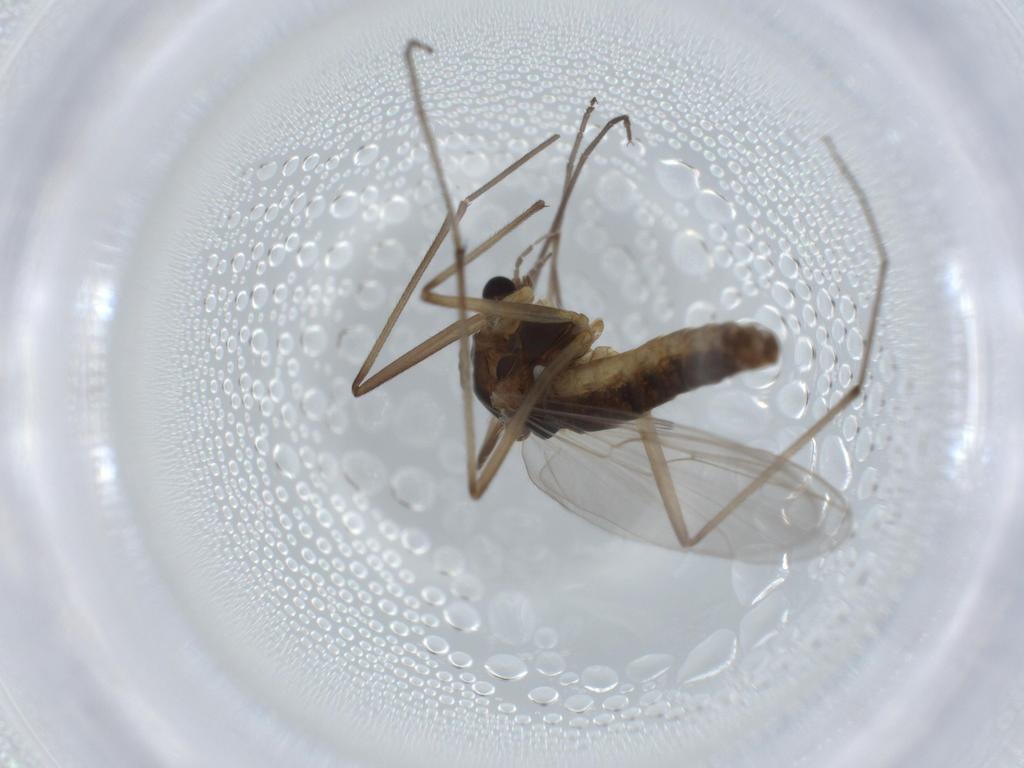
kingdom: Animalia
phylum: Arthropoda
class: Insecta
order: Diptera
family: Chironomidae
